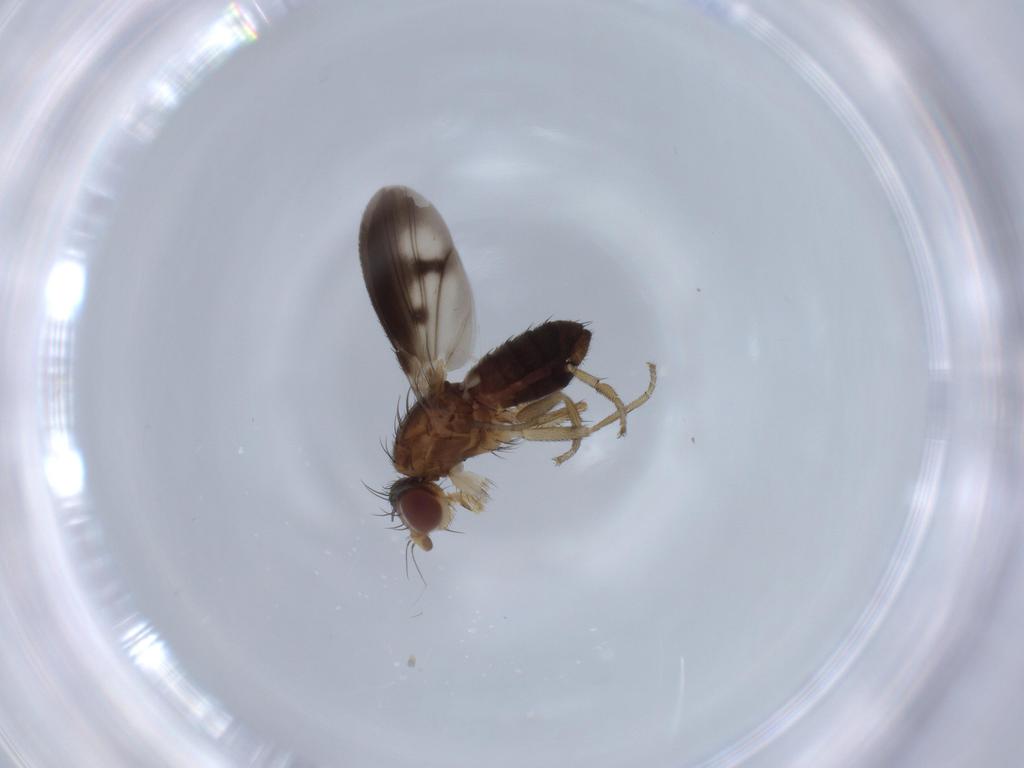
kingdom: Animalia
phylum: Arthropoda
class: Insecta
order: Diptera
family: Heleomyzidae
